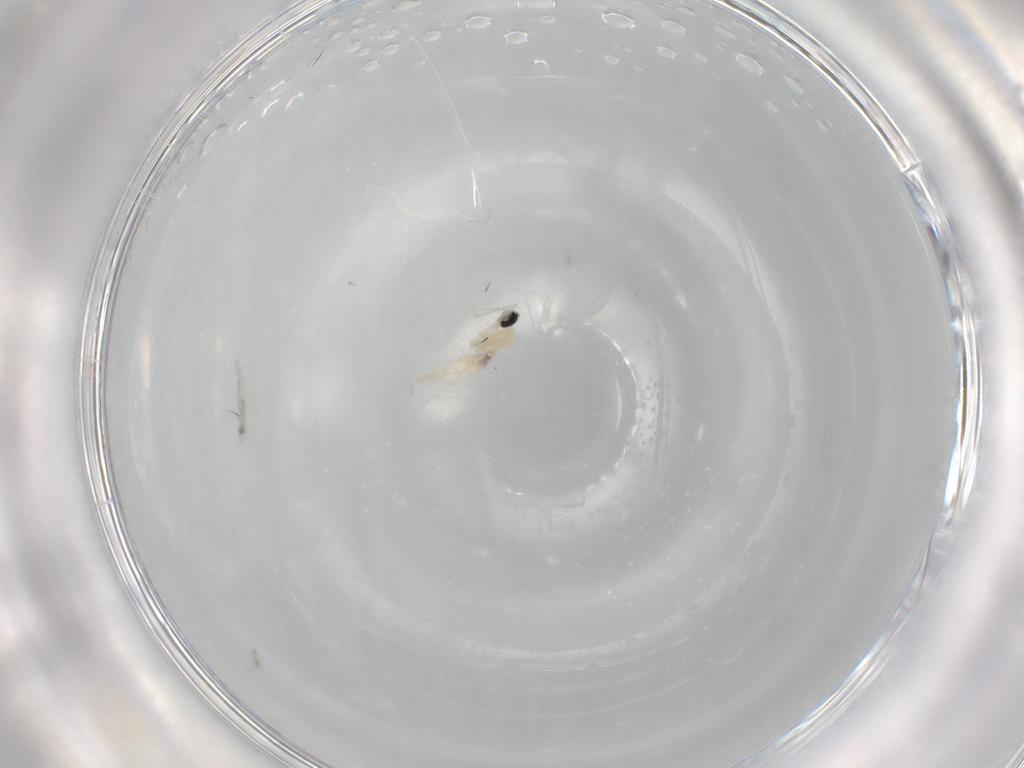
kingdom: Animalia
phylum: Arthropoda
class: Insecta
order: Diptera
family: Cecidomyiidae
